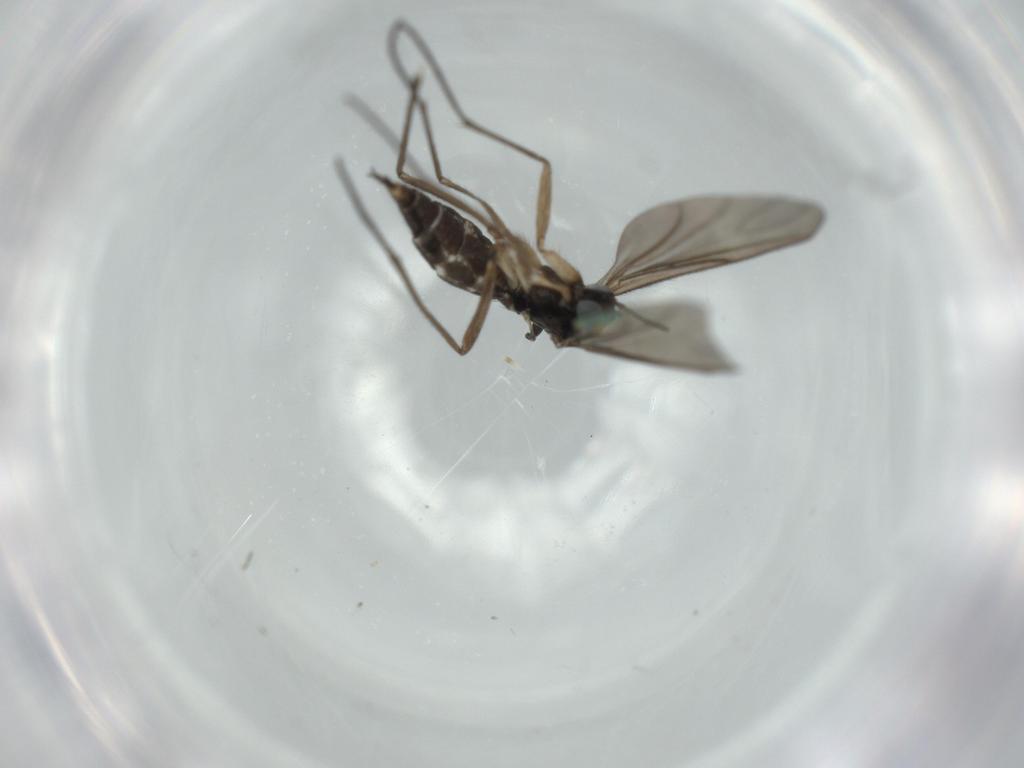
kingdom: Animalia
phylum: Arthropoda
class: Insecta
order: Diptera
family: Sciaridae
